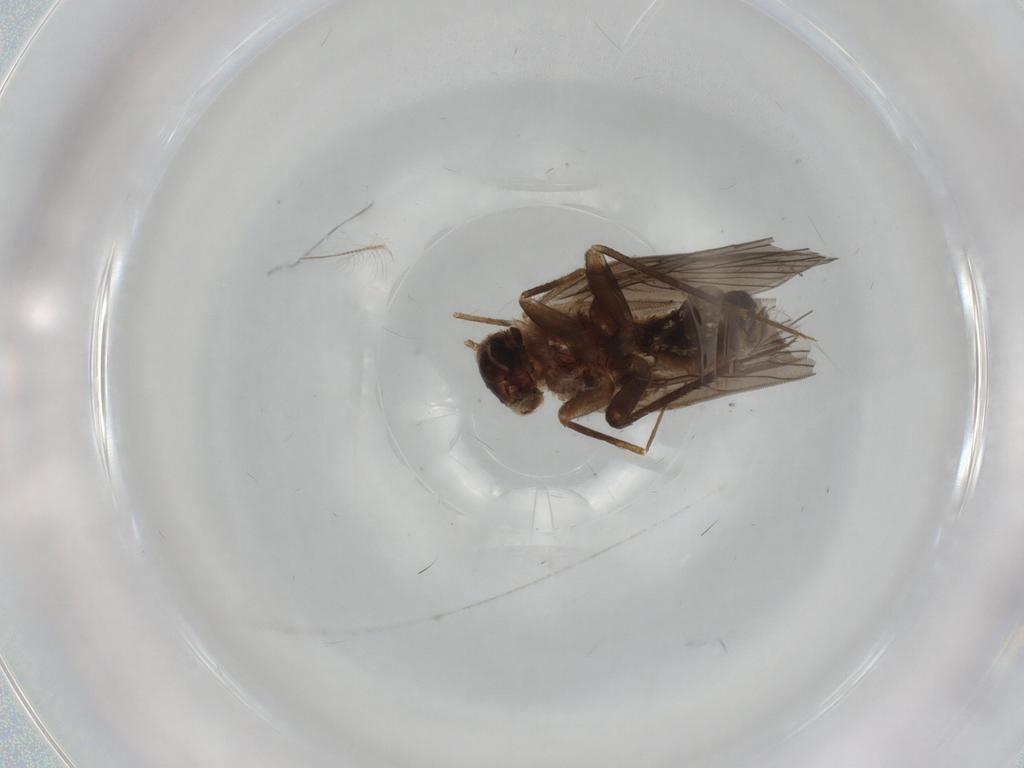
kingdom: Animalia
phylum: Arthropoda
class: Insecta
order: Psocodea
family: Lepidopsocidae
